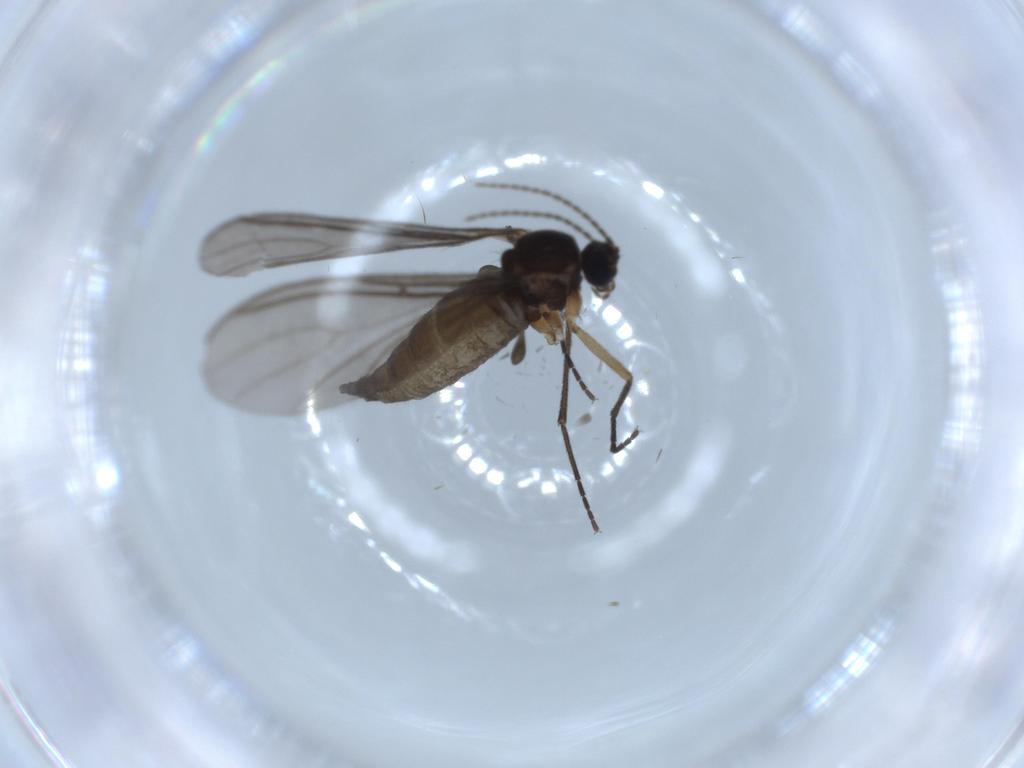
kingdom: Animalia
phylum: Arthropoda
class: Insecta
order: Diptera
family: Sciaridae
